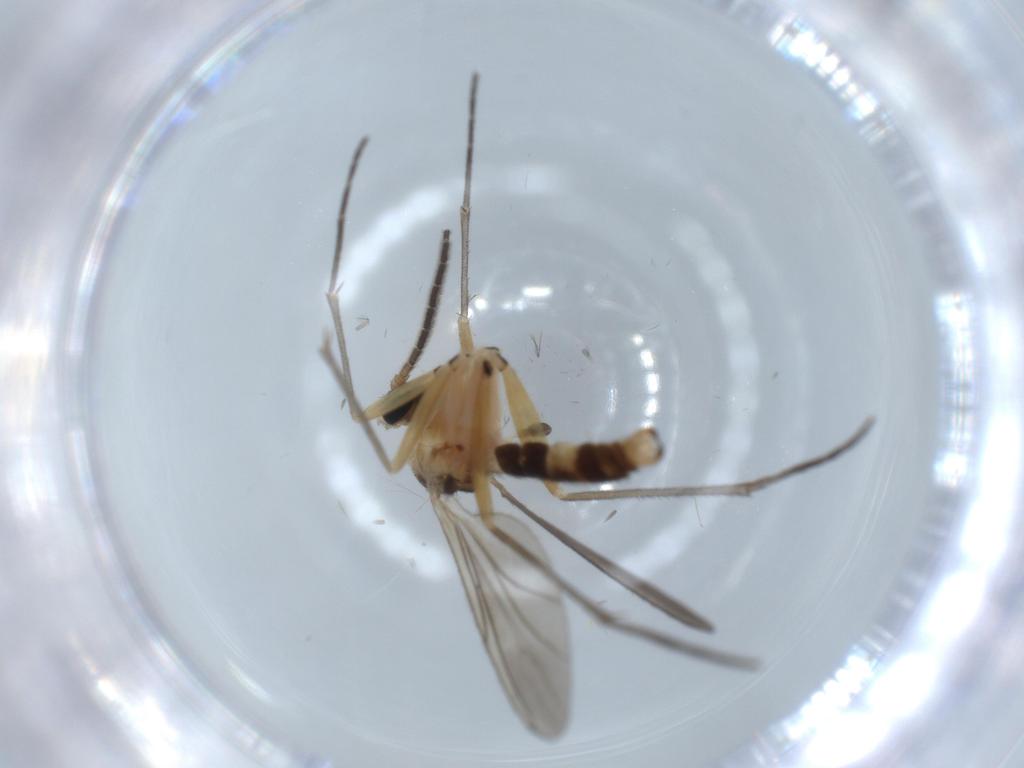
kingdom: Animalia
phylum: Arthropoda
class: Insecta
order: Diptera
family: Sciaridae
